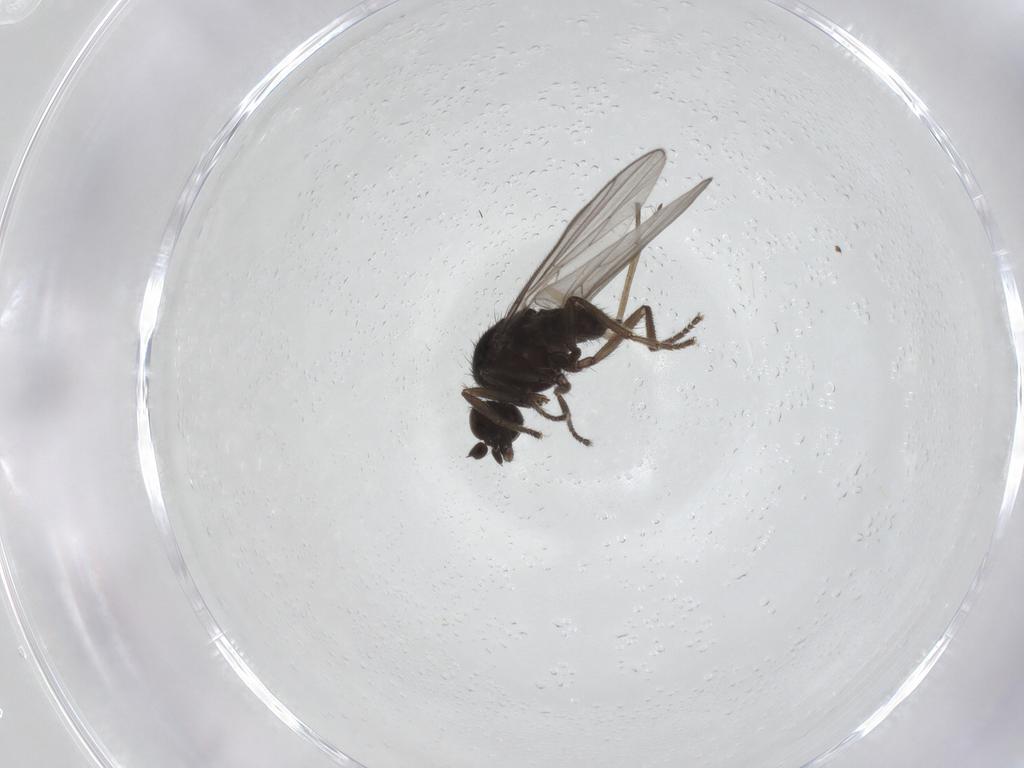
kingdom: Animalia
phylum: Arthropoda
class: Insecta
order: Diptera
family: Hybotidae
